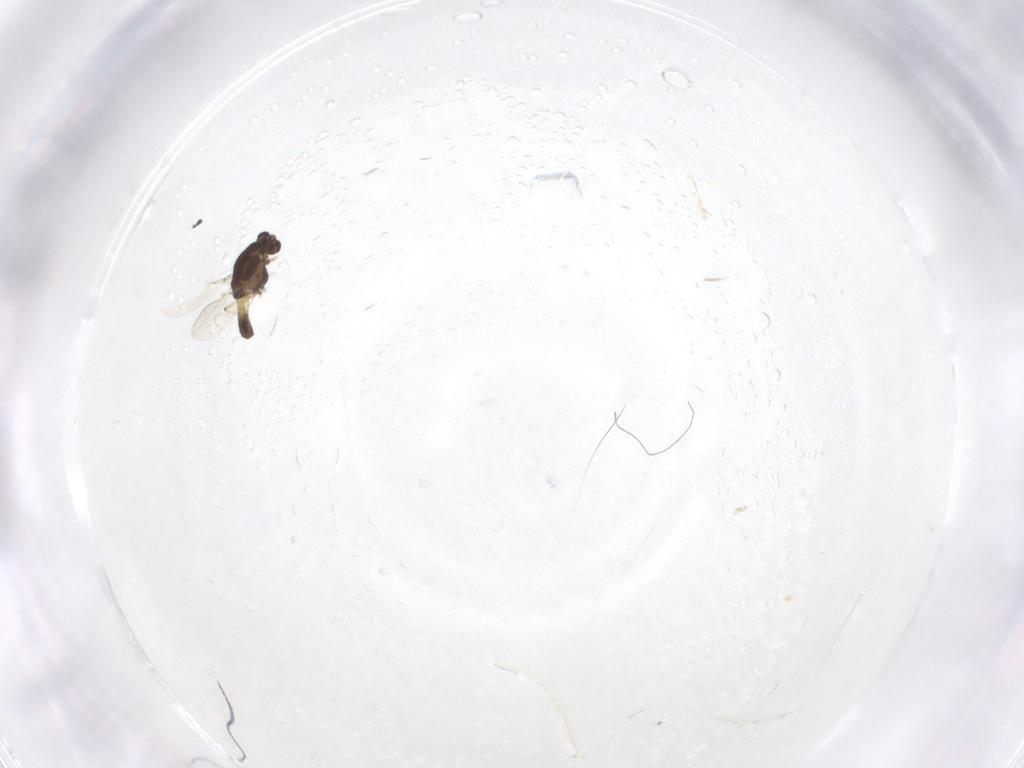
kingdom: Animalia
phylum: Arthropoda
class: Insecta
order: Diptera
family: Chironomidae
